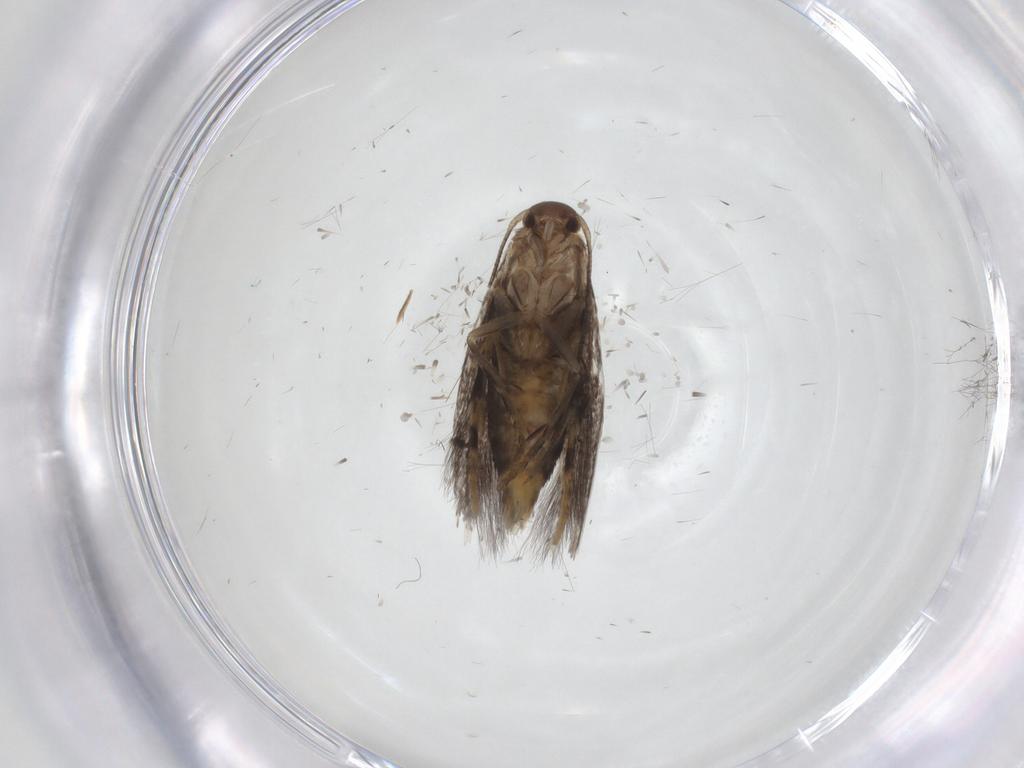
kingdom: Animalia
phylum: Arthropoda
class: Insecta
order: Lepidoptera
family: Elachistidae
